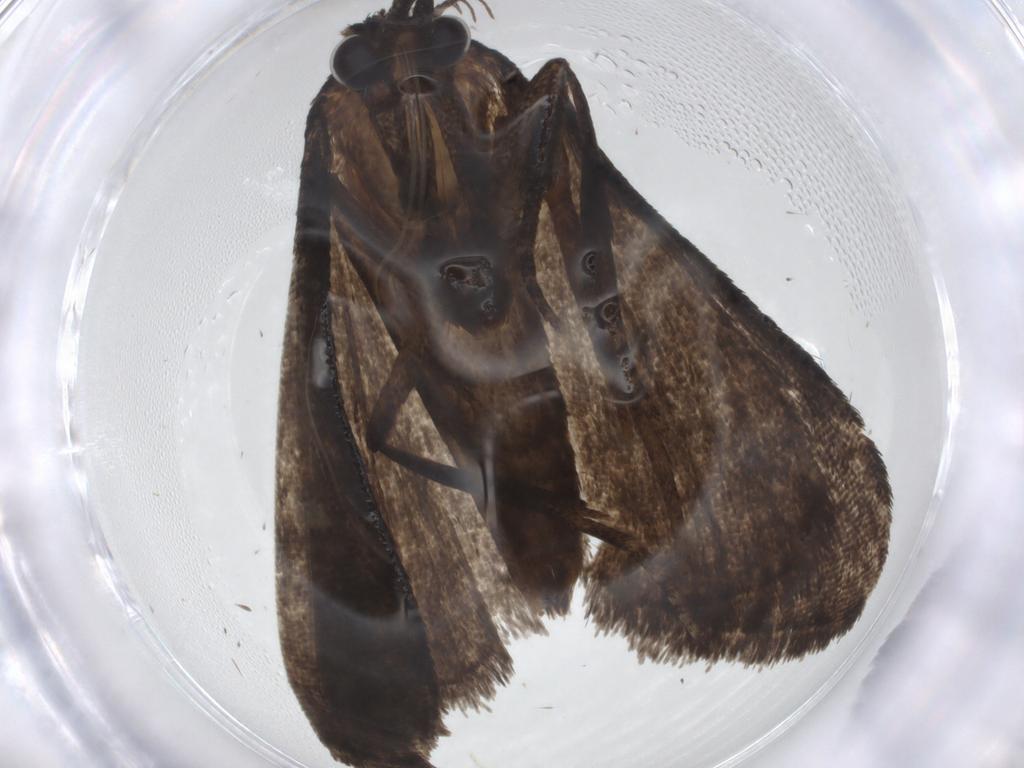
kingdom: Animalia
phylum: Arthropoda
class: Insecta
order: Lepidoptera
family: Erebidae
